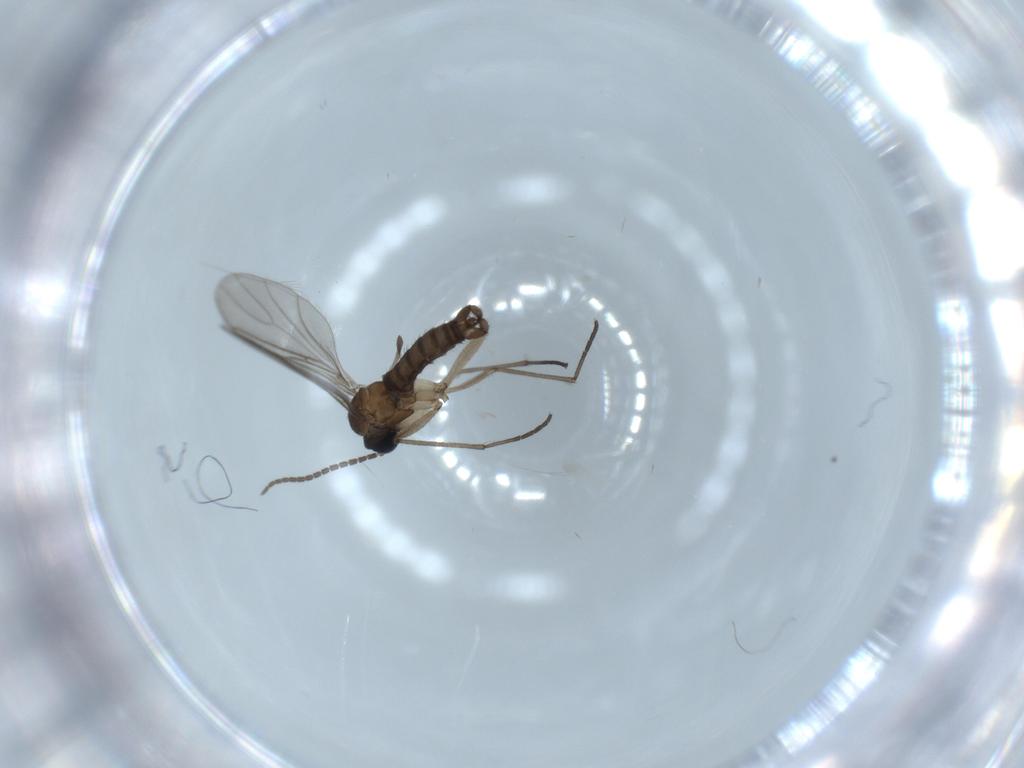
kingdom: Animalia
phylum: Arthropoda
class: Insecta
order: Diptera
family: Sciaridae
